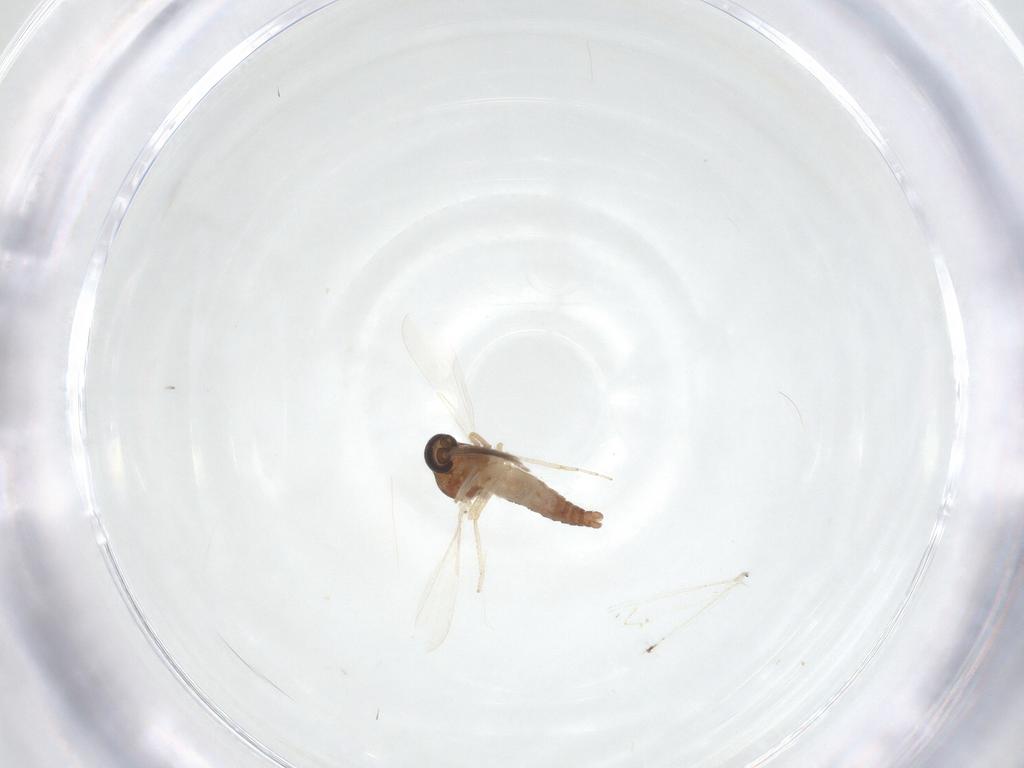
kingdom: Animalia
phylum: Arthropoda
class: Insecta
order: Diptera
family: Ceratopogonidae
